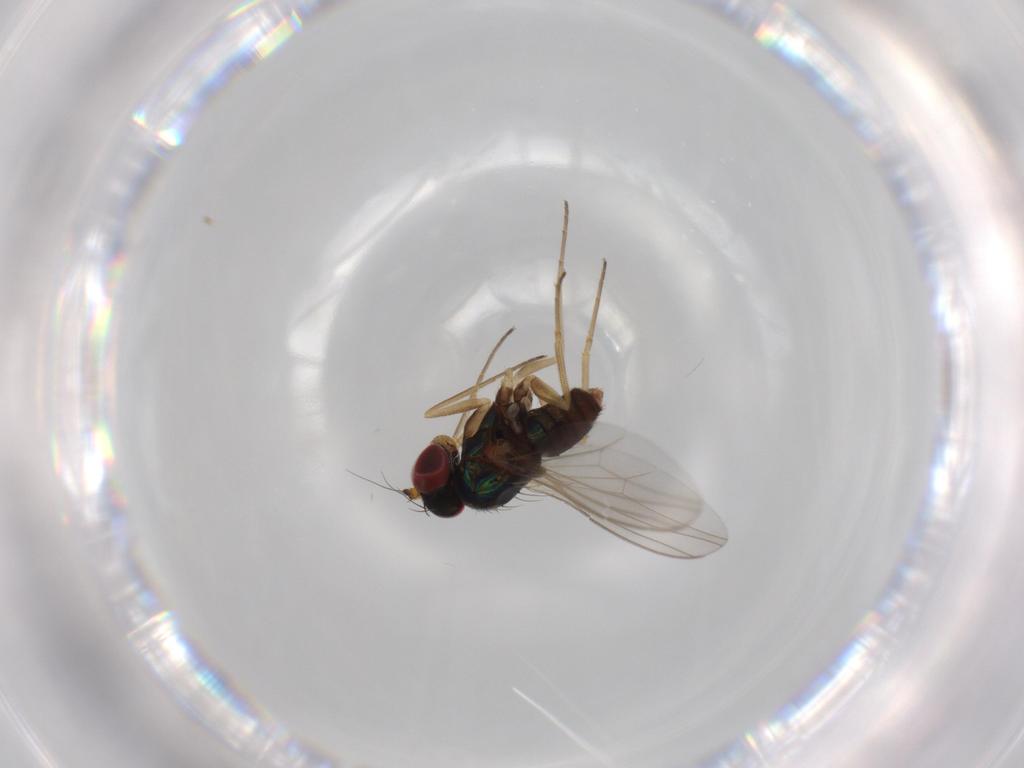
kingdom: Animalia
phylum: Arthropoda
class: Insecta
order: Diptera
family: Dolichopodidae
